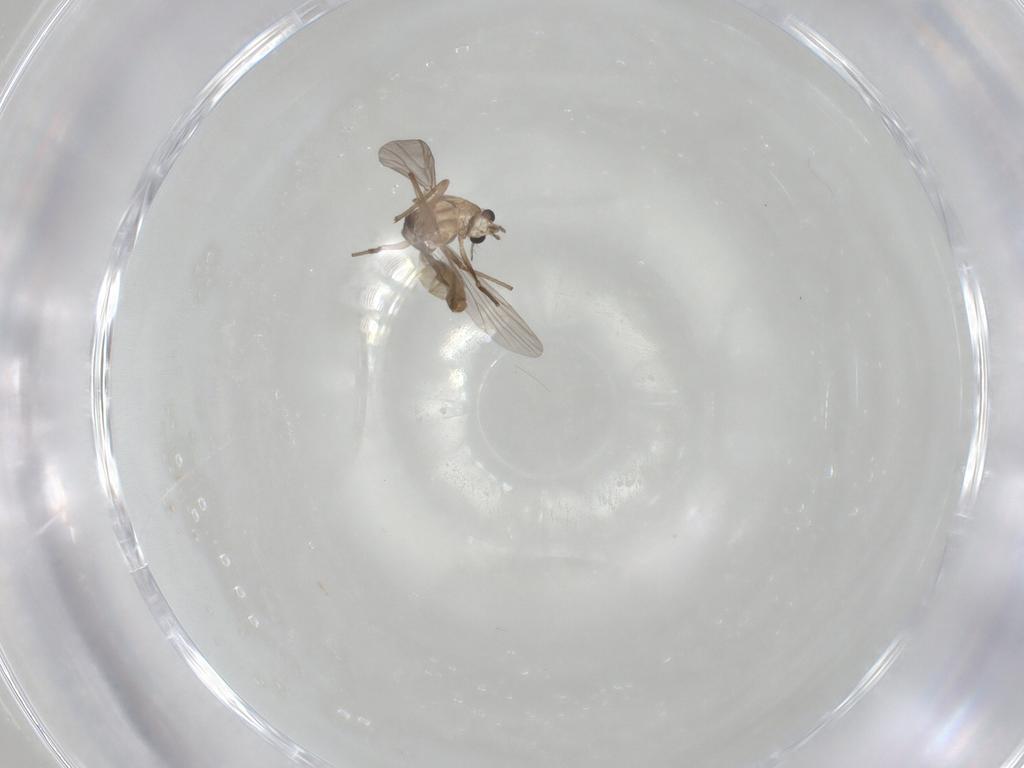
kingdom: Animalia
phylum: Arthropoda
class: Insecta
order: Diptera
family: Chironomidae
